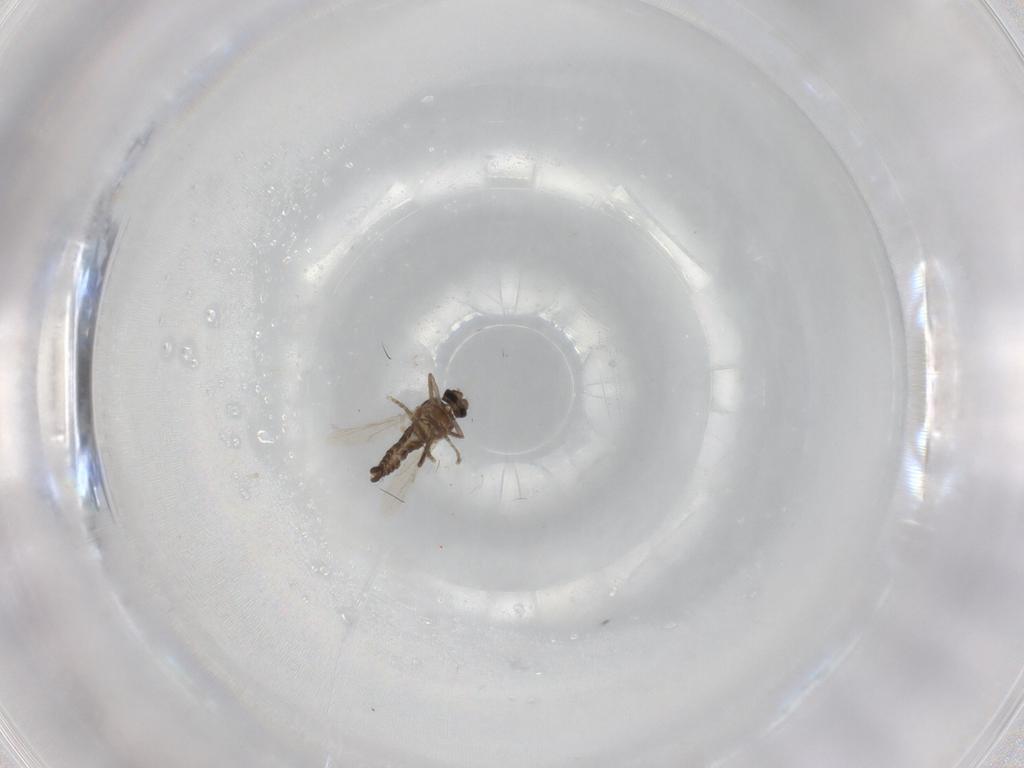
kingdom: Animalia
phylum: Arthropoda
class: Insecta
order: Diptera
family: Ceratopogonidae
